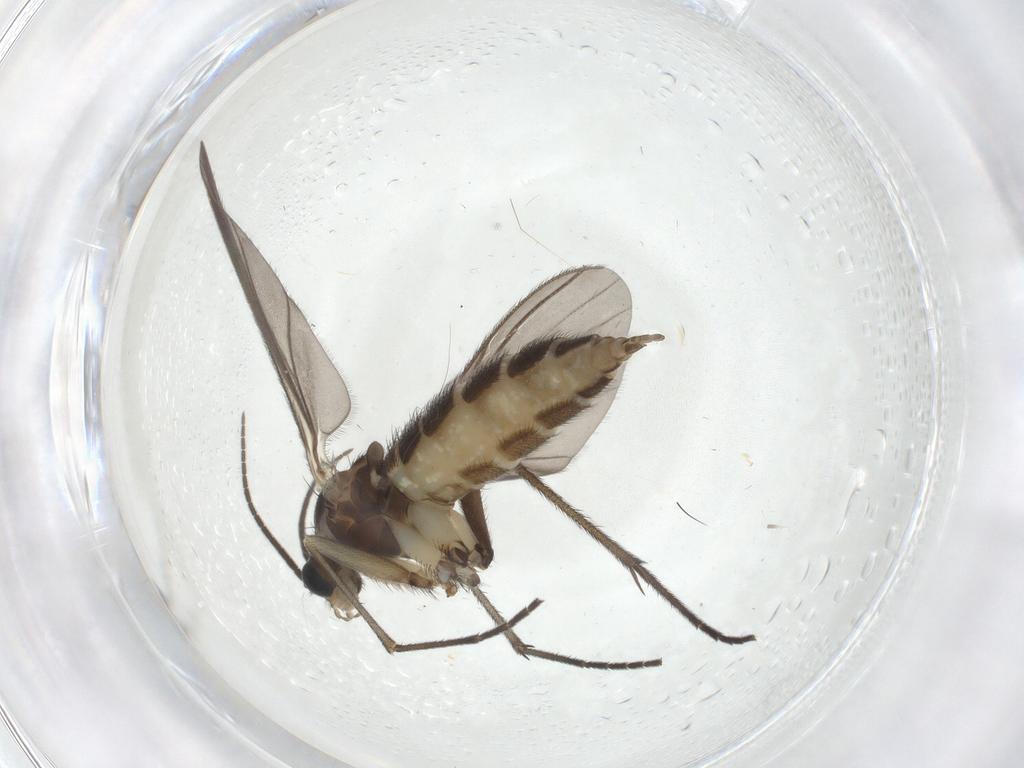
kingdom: Animalia
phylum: Arthropoda
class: Insecta
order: Diptera
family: Sciaridae
